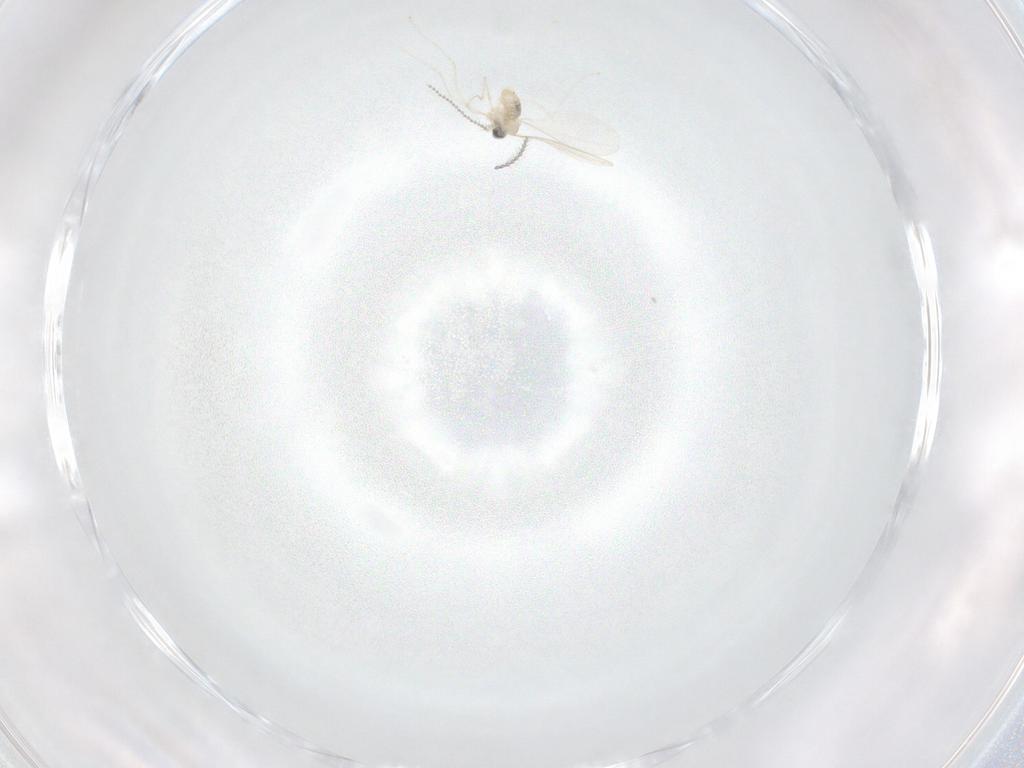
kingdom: Animalia
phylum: Arthropoda
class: Insecta
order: Diptera
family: Cecidomyiidae
